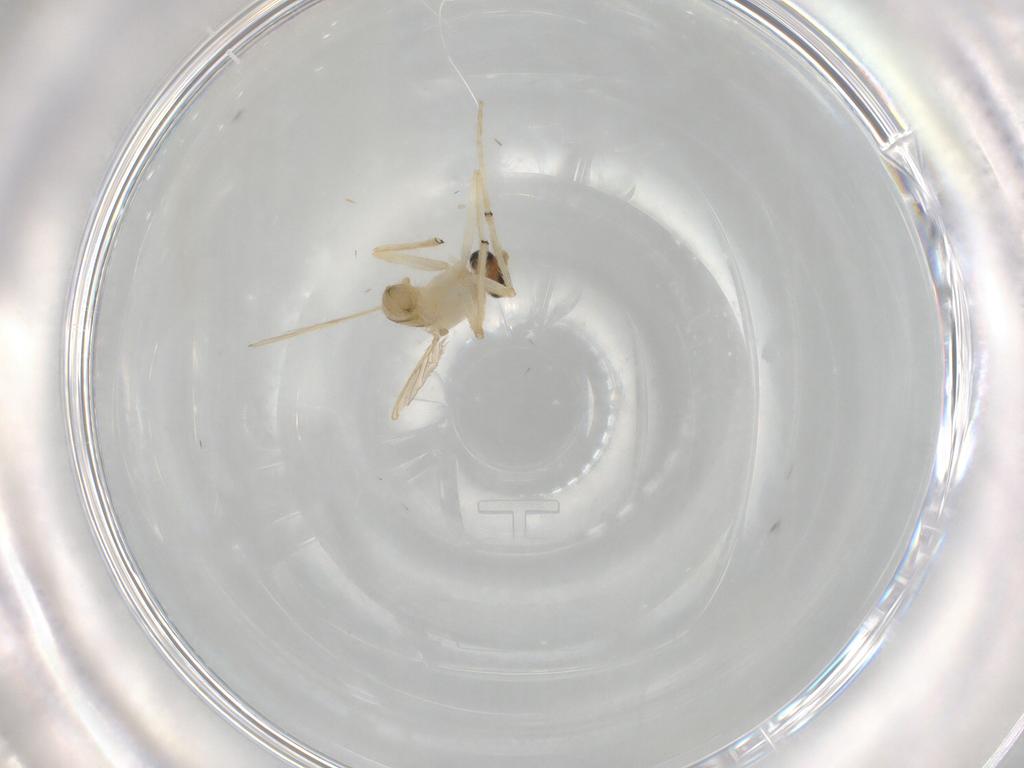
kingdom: Animalia
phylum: Arthropoda
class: Insecta
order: Diptera
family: Chironomidae
